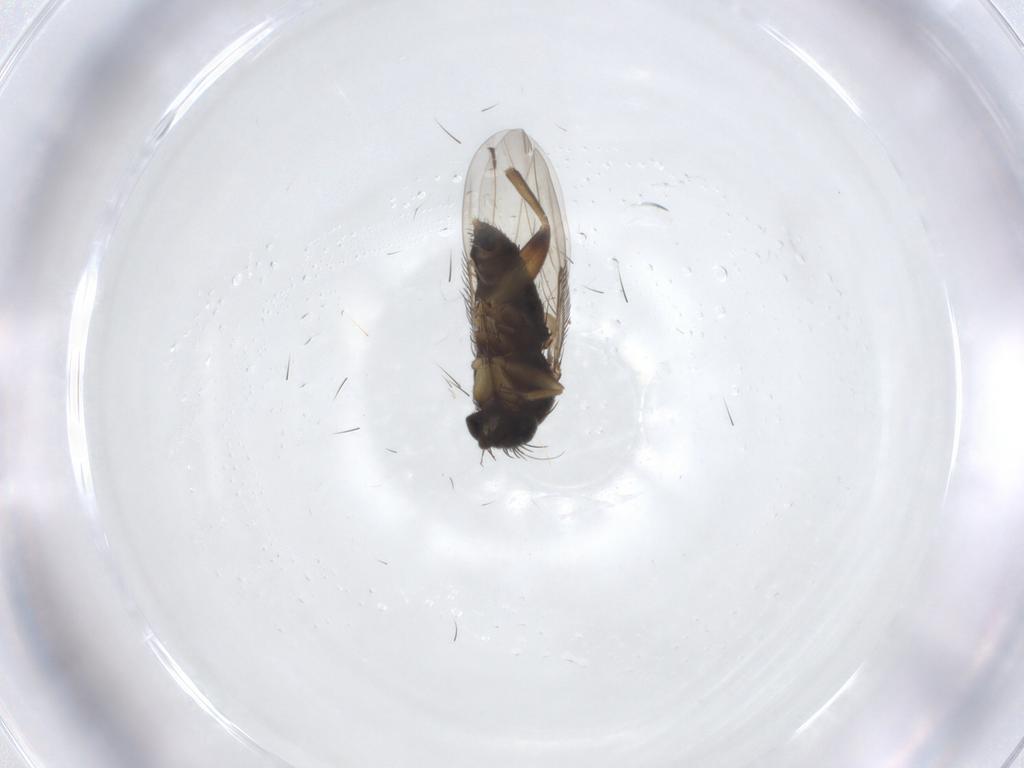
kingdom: Animalia
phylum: Arthropoda
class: Insecta
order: Diptera
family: Phoridae
